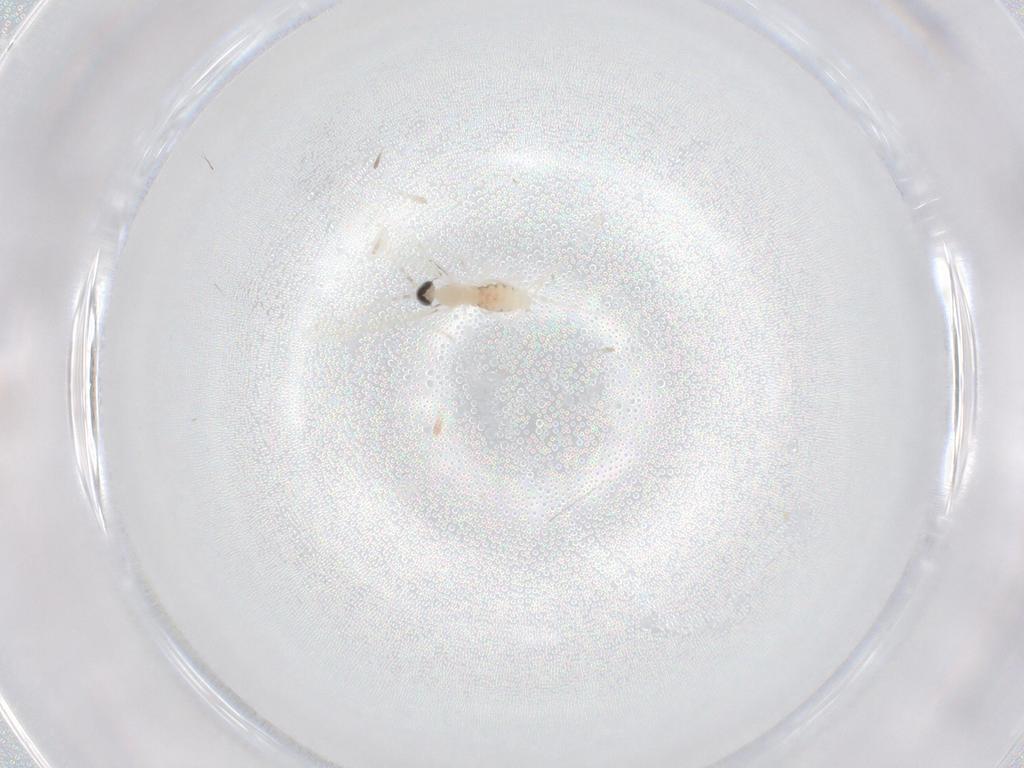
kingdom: Animalia
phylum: Arthropoda
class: Insecta
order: Diptera
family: Cecidomyiidae
